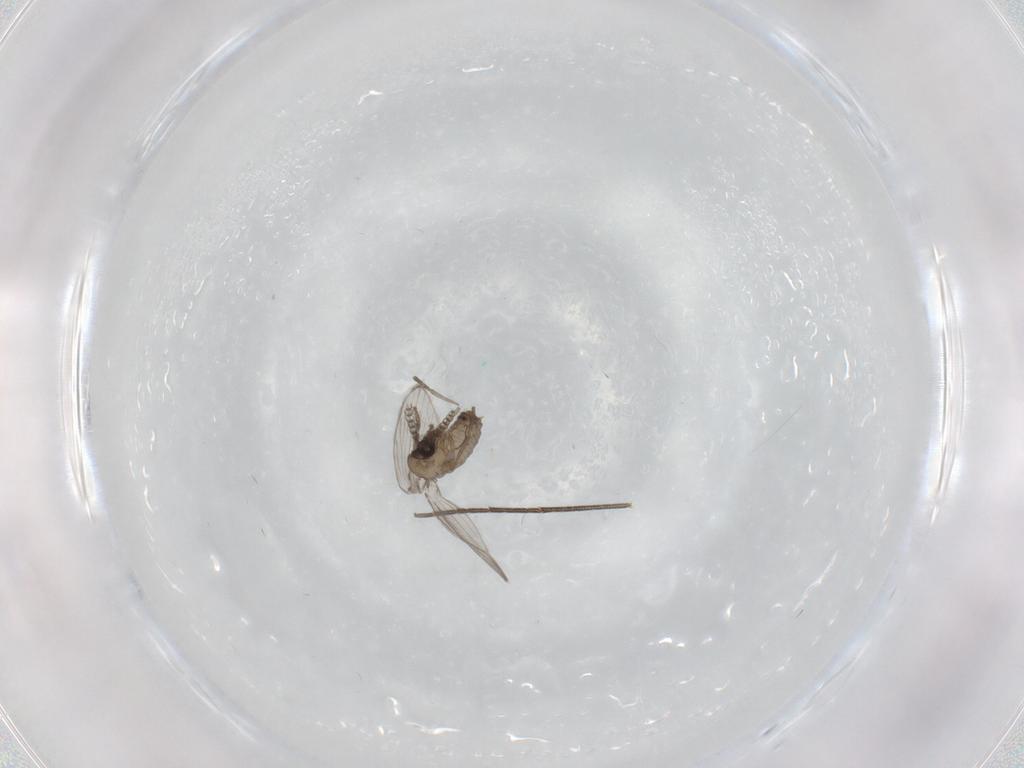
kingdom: Animalia
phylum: Arthropoda
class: Insecta
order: Diptera
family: Psychodidae
